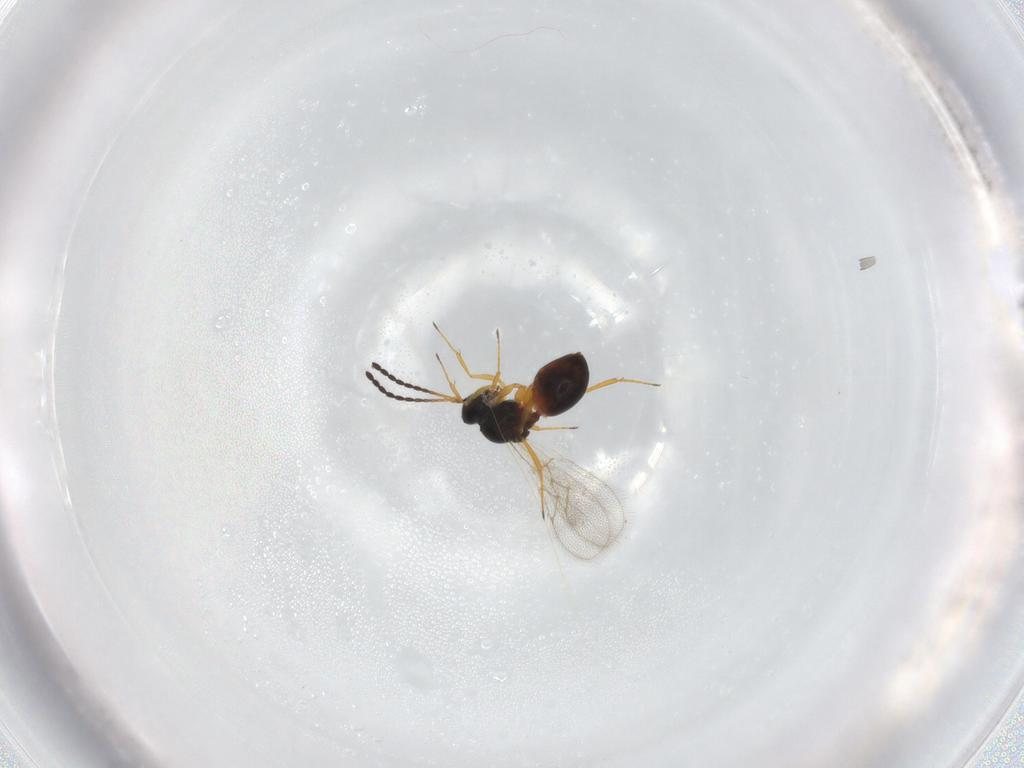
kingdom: Animalia
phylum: Arthropoda
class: Insecta
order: Hymenoptera
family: Figitidae
